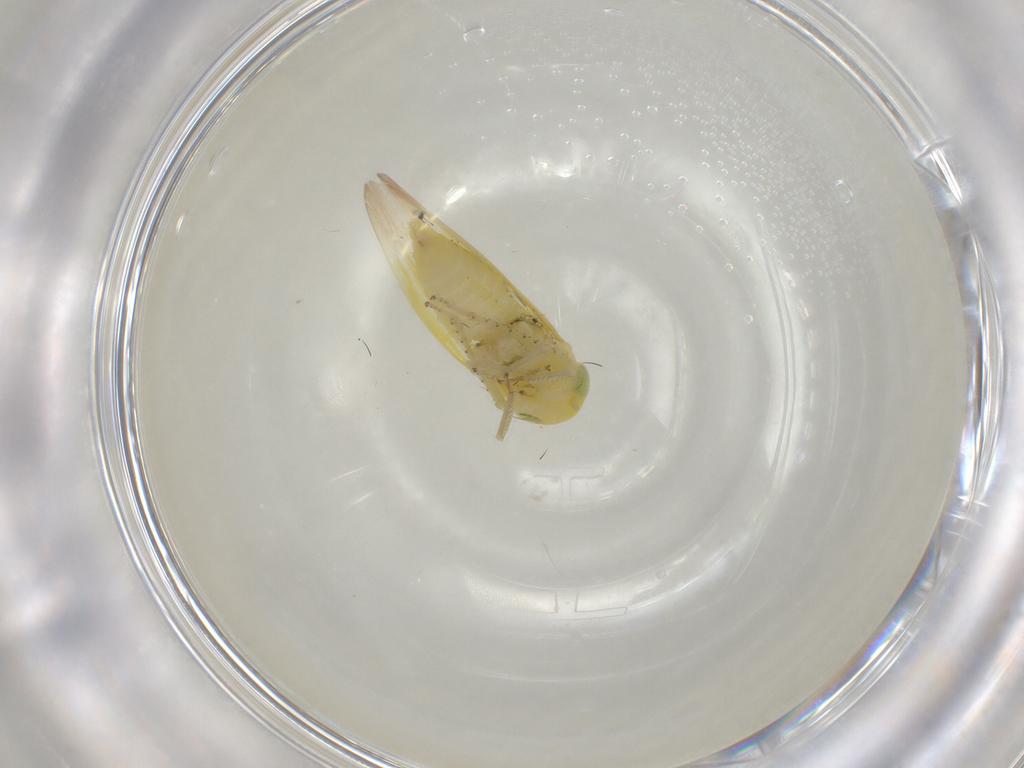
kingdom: Animalia
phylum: Arthropoda
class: Insecta
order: Hemiptera
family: Cicadellidae
